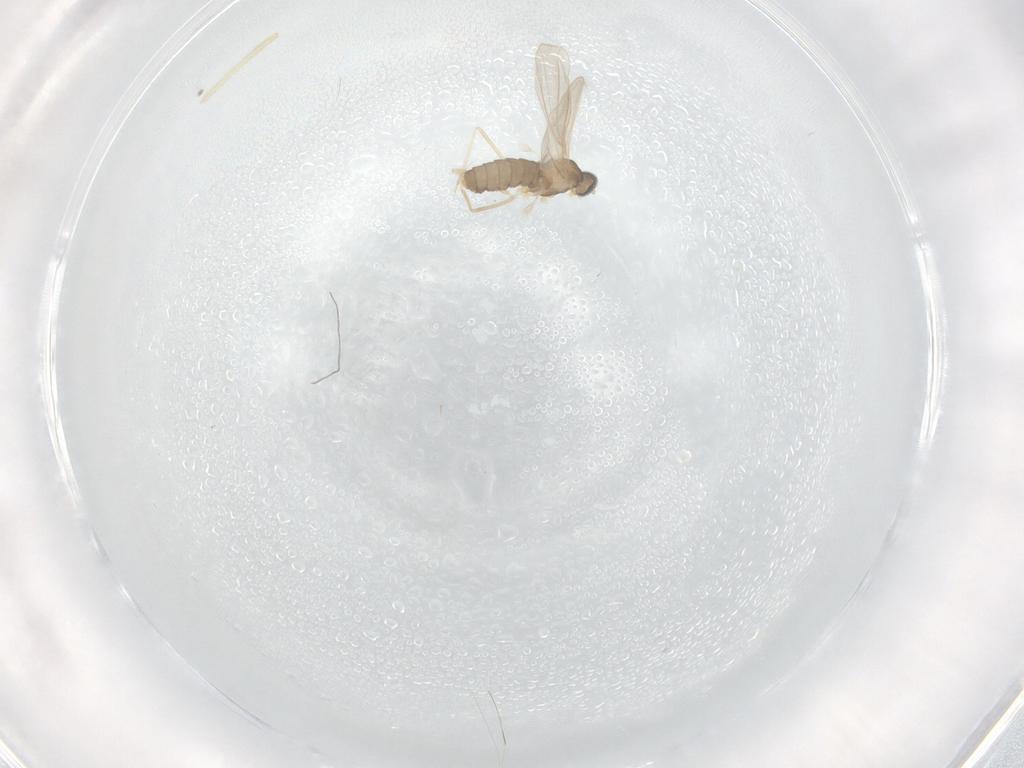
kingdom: Animalia
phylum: Arthropoda
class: Insecta
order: Diptera
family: Cecidomyiidae
